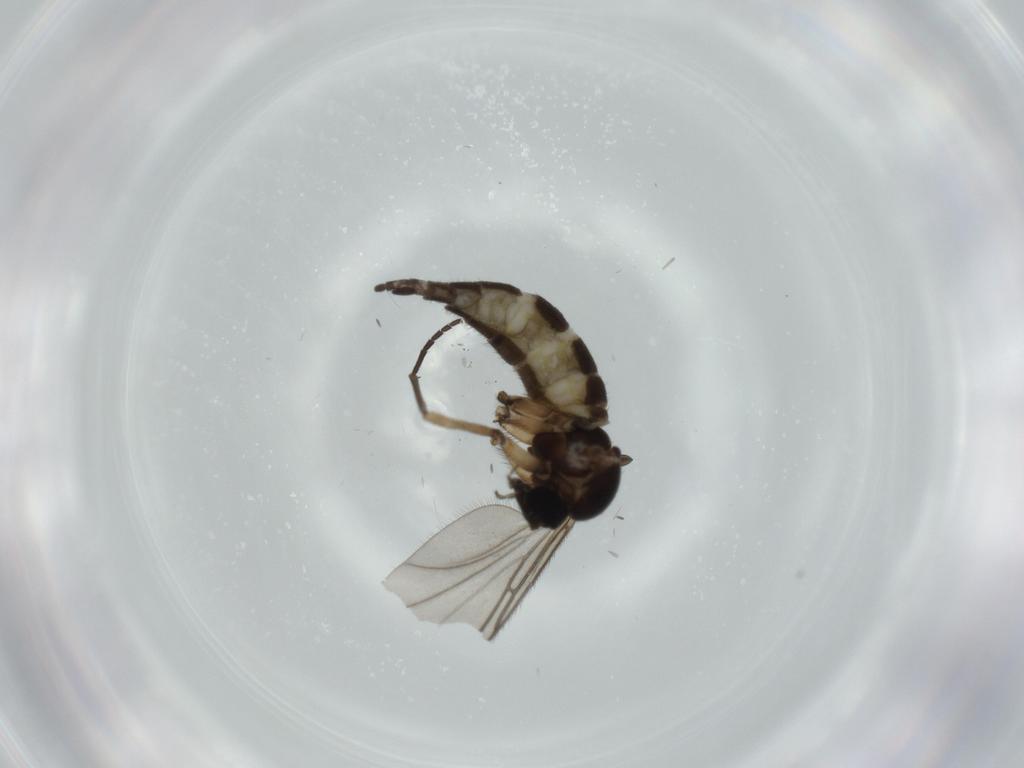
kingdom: Animalia
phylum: Arthropoda
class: Insecta
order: Diptera
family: Sciaridae
